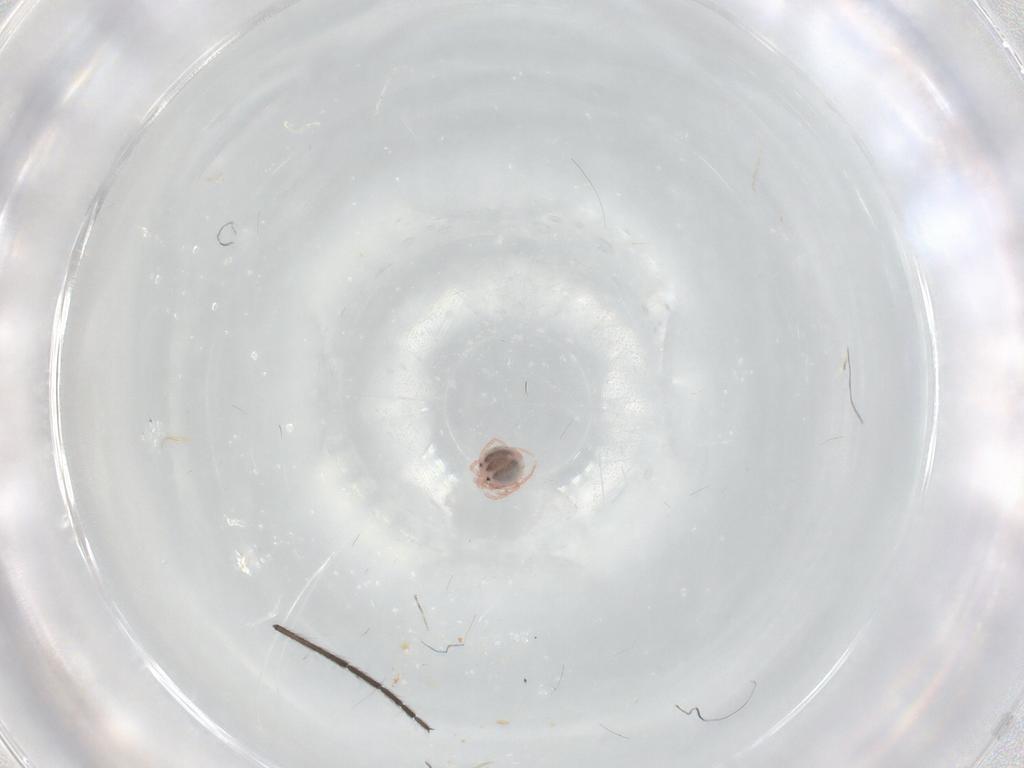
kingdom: Animalia
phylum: Arthropoda
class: Arachnida
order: Trombidiformes
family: Lebertiidae
